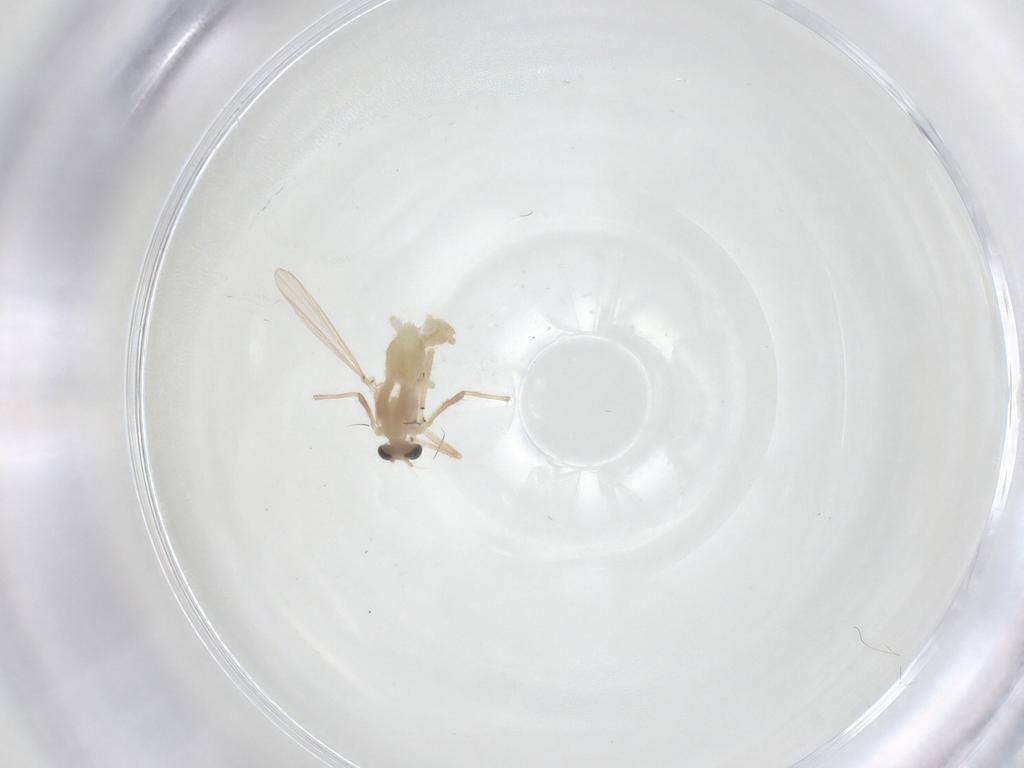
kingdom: Animalia
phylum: Arthropoda
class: Insecta
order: Diptera
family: Chironomidae
